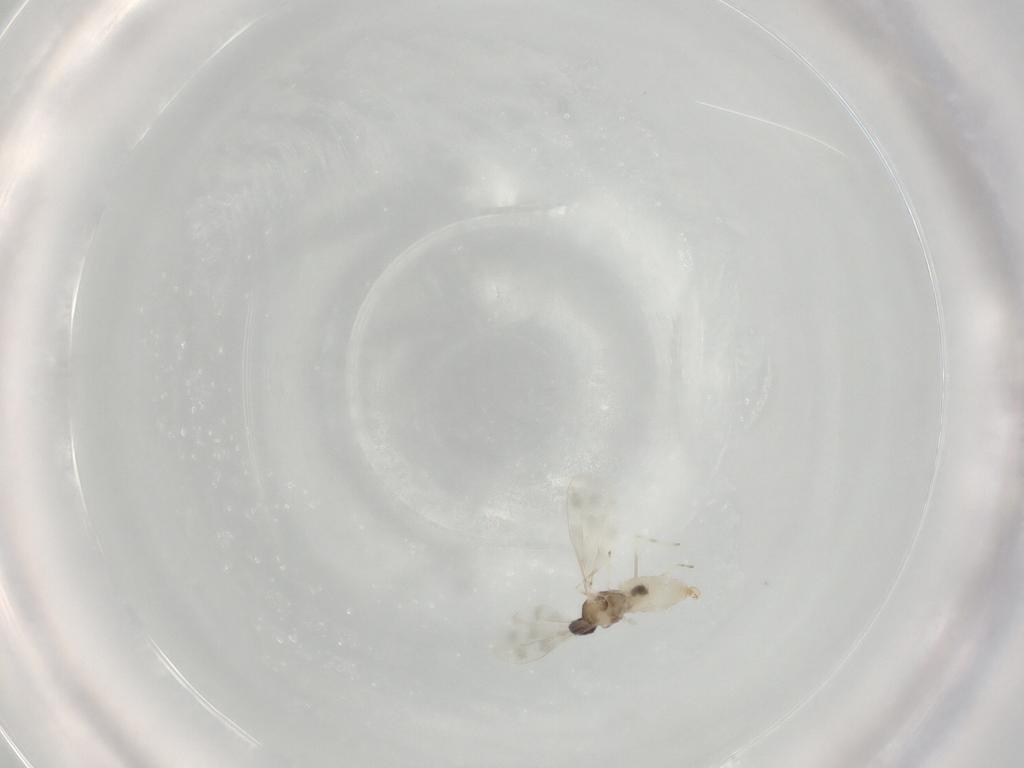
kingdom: Animalia
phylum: Arthropoda
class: Insecta
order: Diptera
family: Cecidomyiidae
